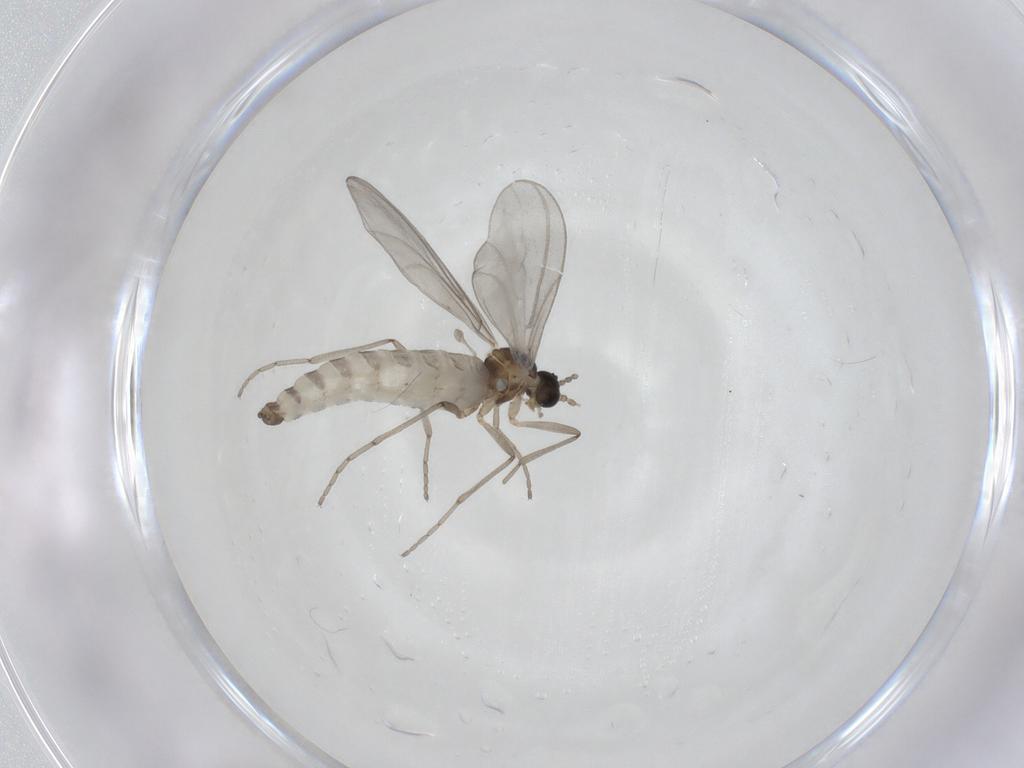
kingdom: Animalia
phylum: Arthropoda
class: Insecta
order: Diptera
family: Cecidomyiidae
